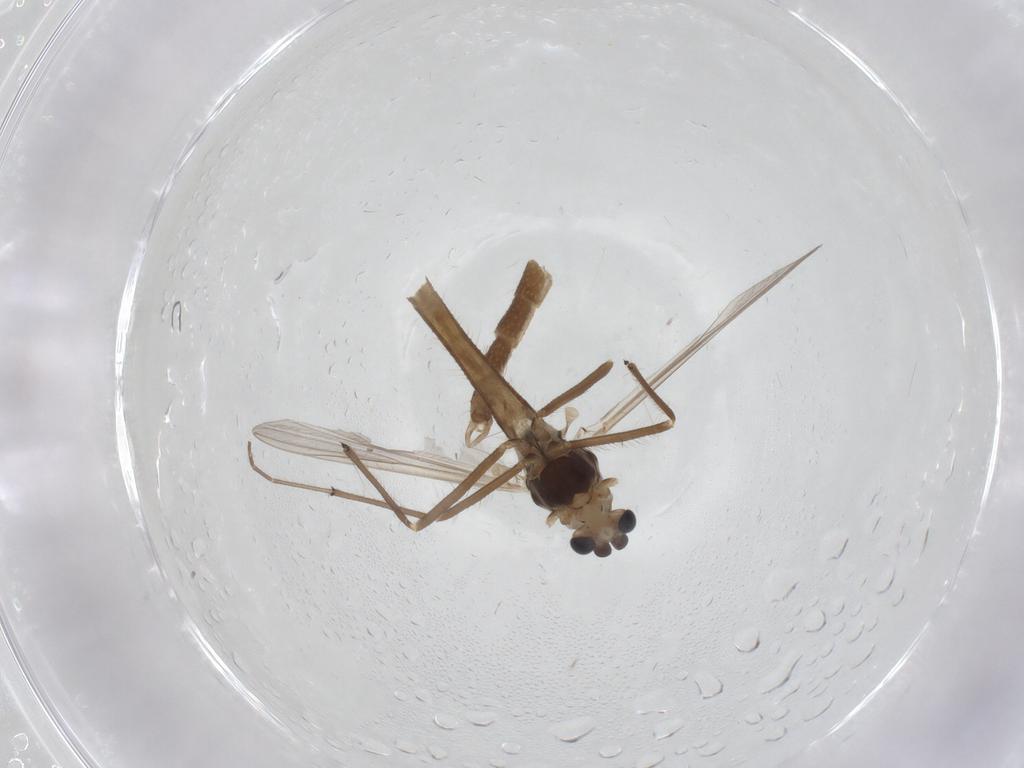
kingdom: Animalia
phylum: Arthropoda
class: Insecta
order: Diptera
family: Chironomidae
